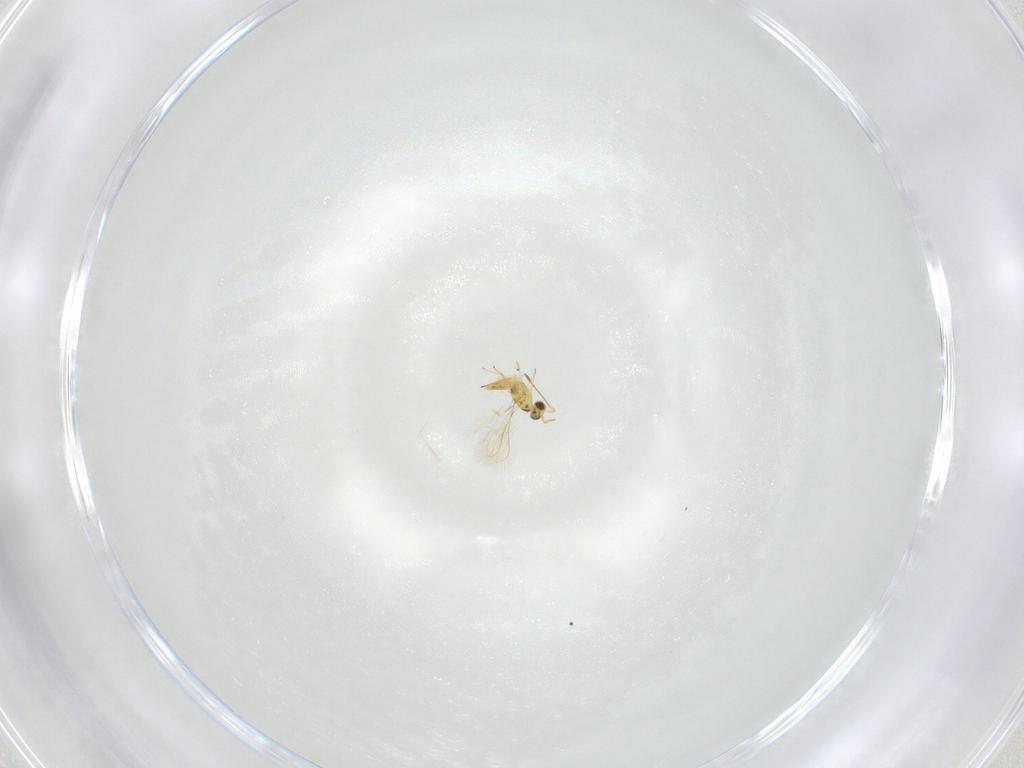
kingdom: Animalia
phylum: Arthropoda
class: Insecta
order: Hymenoptera
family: Mymaridae
